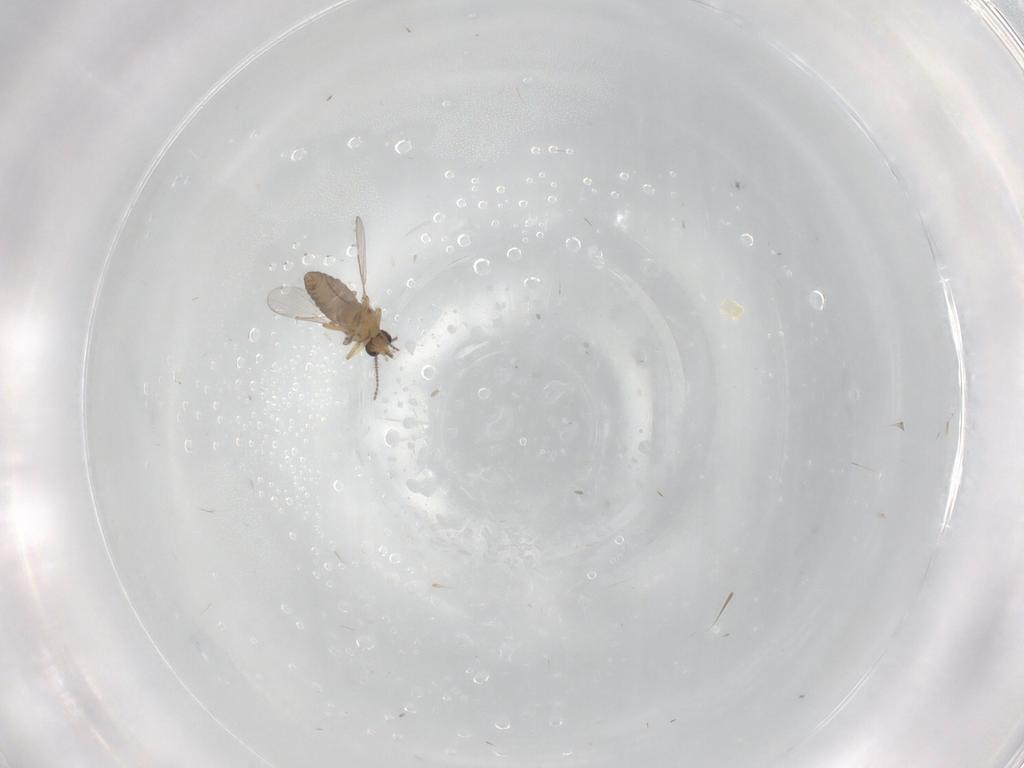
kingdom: Animalia
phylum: Arthropoda
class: Insecta
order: Diptera
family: Ceratopogonidae
